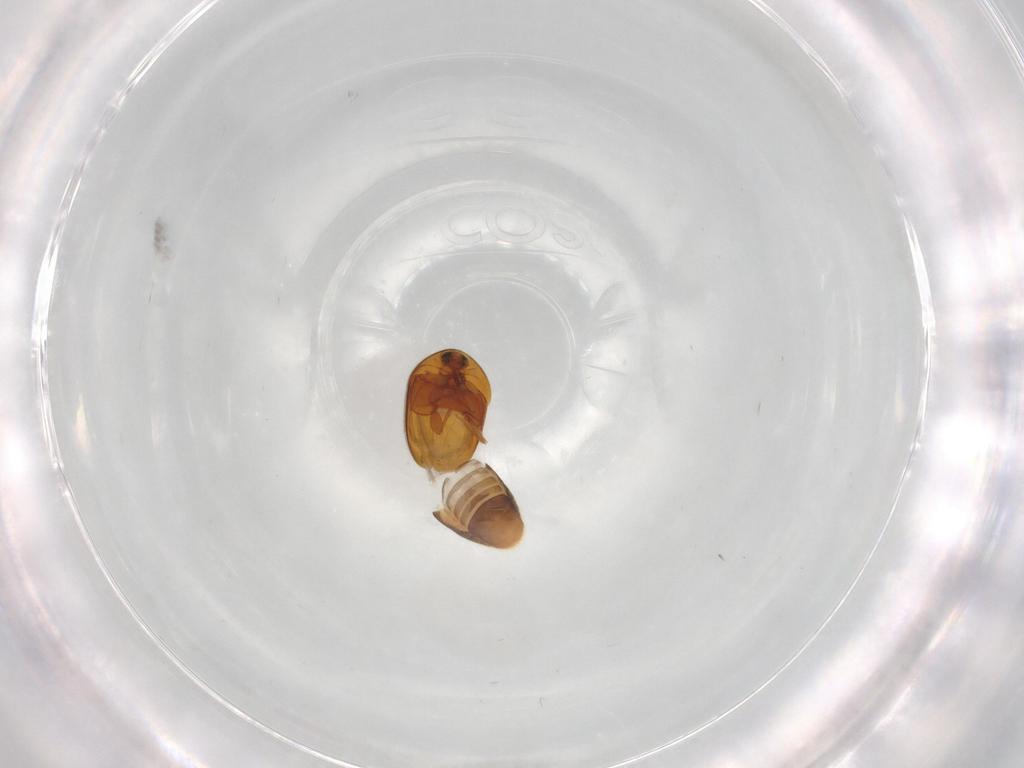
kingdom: Animalia
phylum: Arthropoda
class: Insecta
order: Coleoptera
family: Corylophidae
